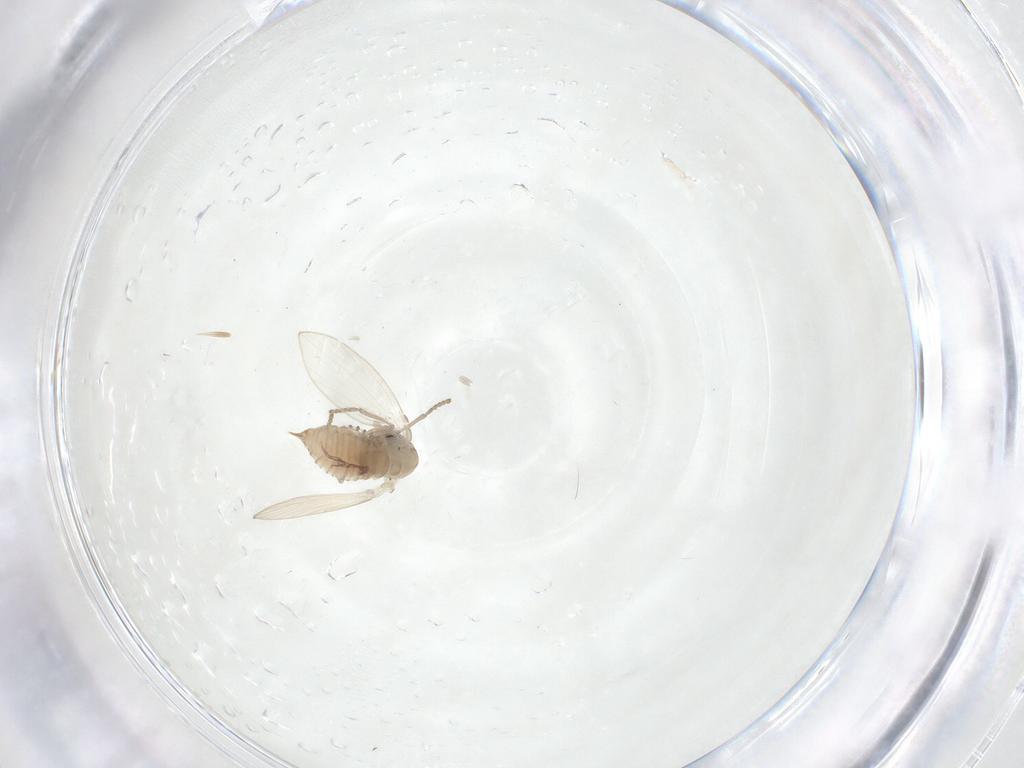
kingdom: Animalia
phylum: Arthropoda
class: Insecta
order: Diptera
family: Psychodidae
